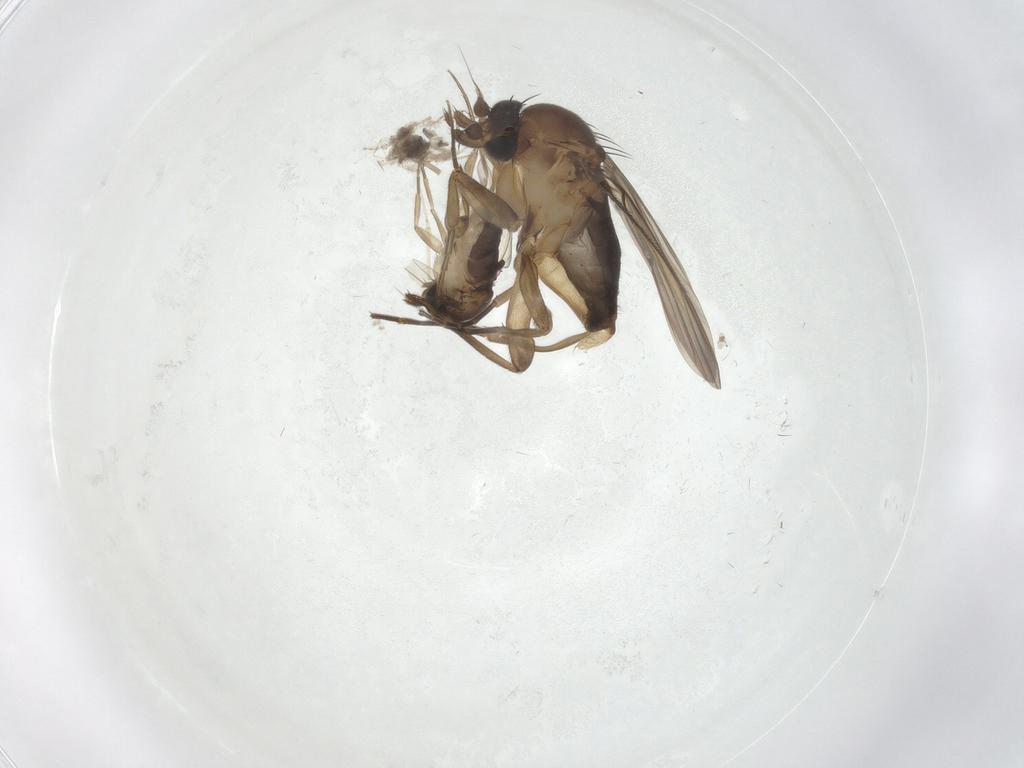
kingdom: Animalia
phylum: Arthropoda
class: Insecta
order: Diptera
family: Phoridae
